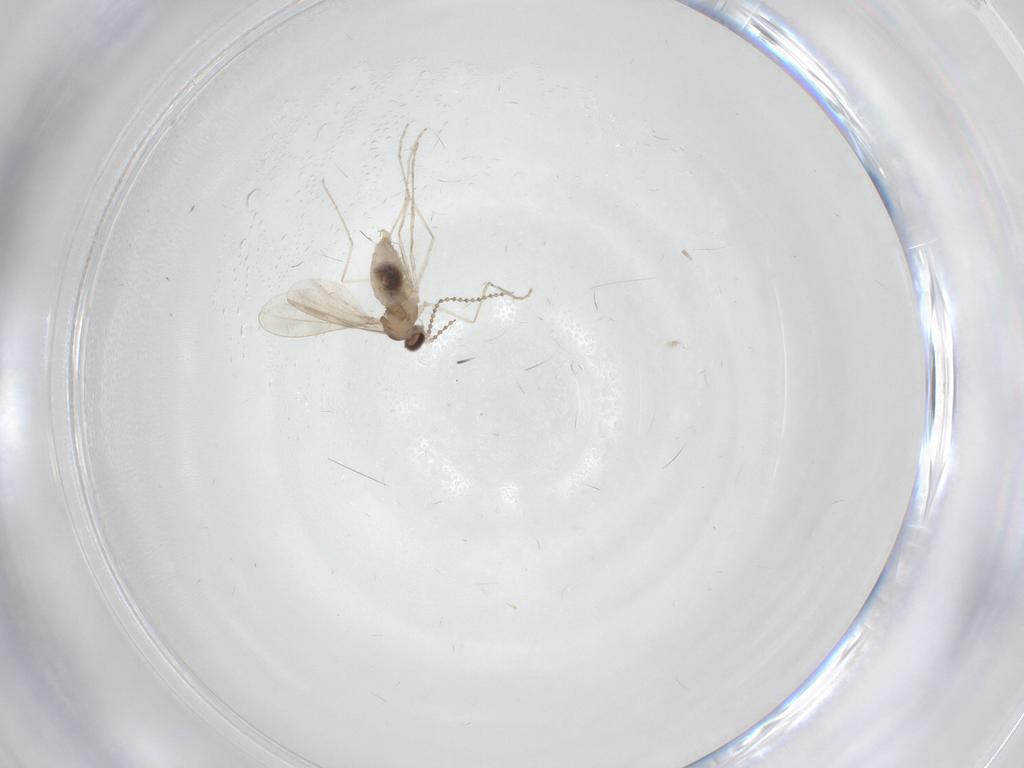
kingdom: Animalia
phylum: Arthropoda
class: Insecta
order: Diptera
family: Cecidomyiidae
